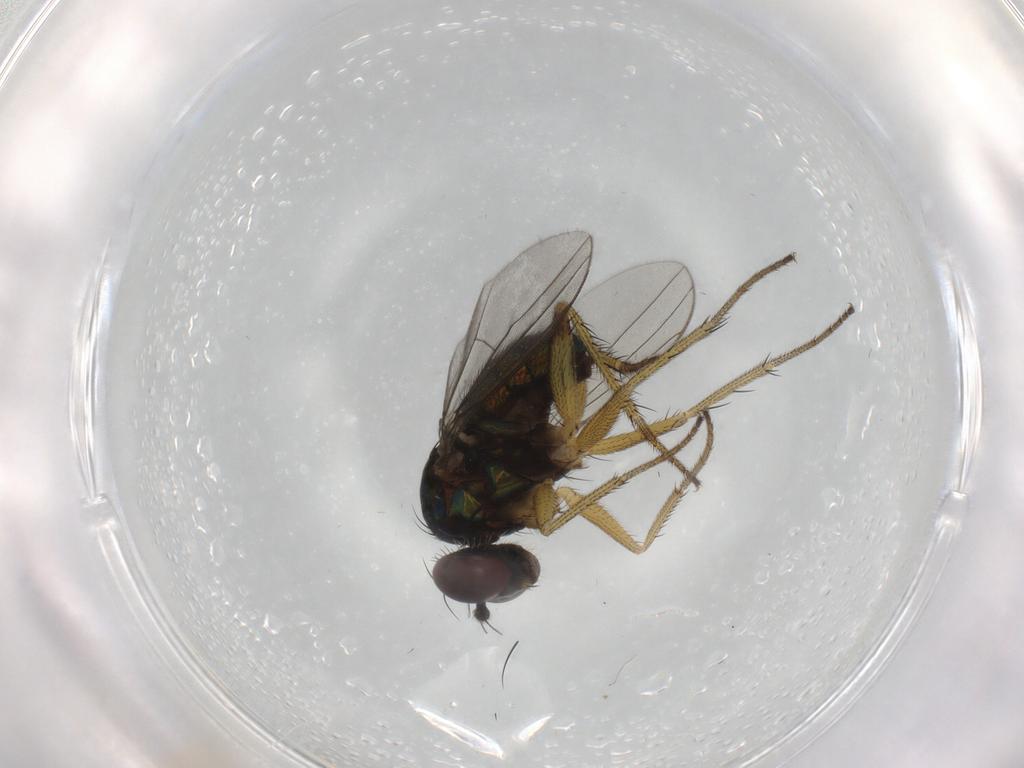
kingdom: Animalia
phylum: Arthropoda
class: Insecta
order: Diptera
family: Dolichopodidae
